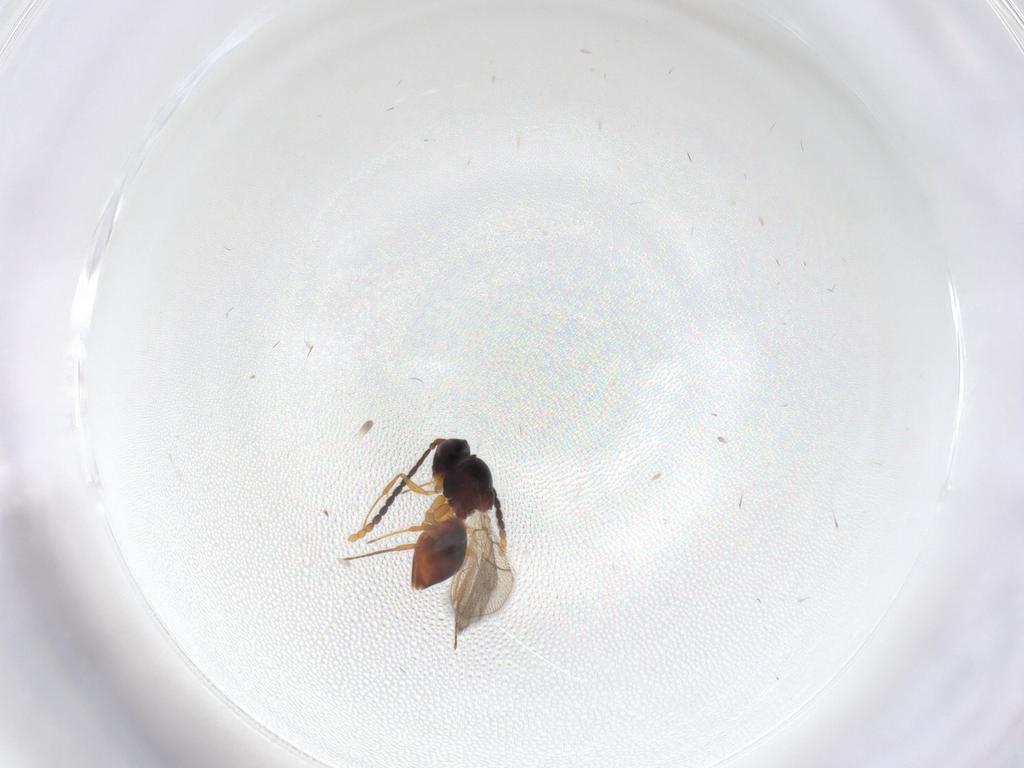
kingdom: Animalia
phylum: Arthropoda
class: Insecta
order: Hymenoptera
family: Figitidae
